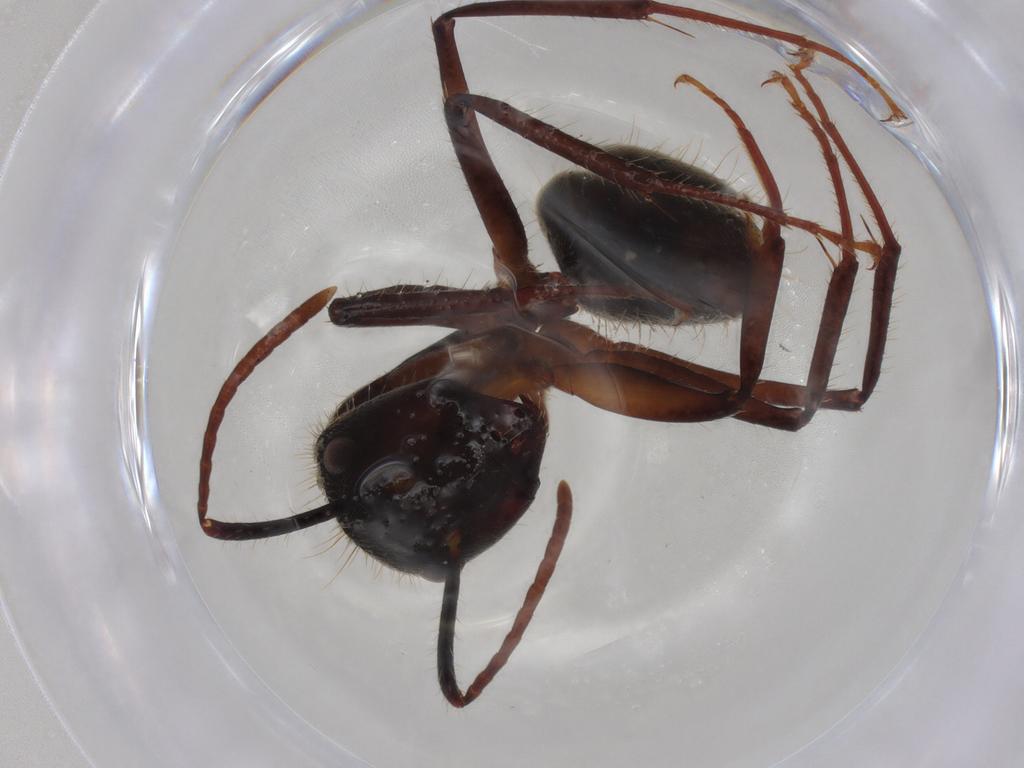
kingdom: Animalia
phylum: Arthropoda
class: Insecta
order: Hymenoptera
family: Formicidae
